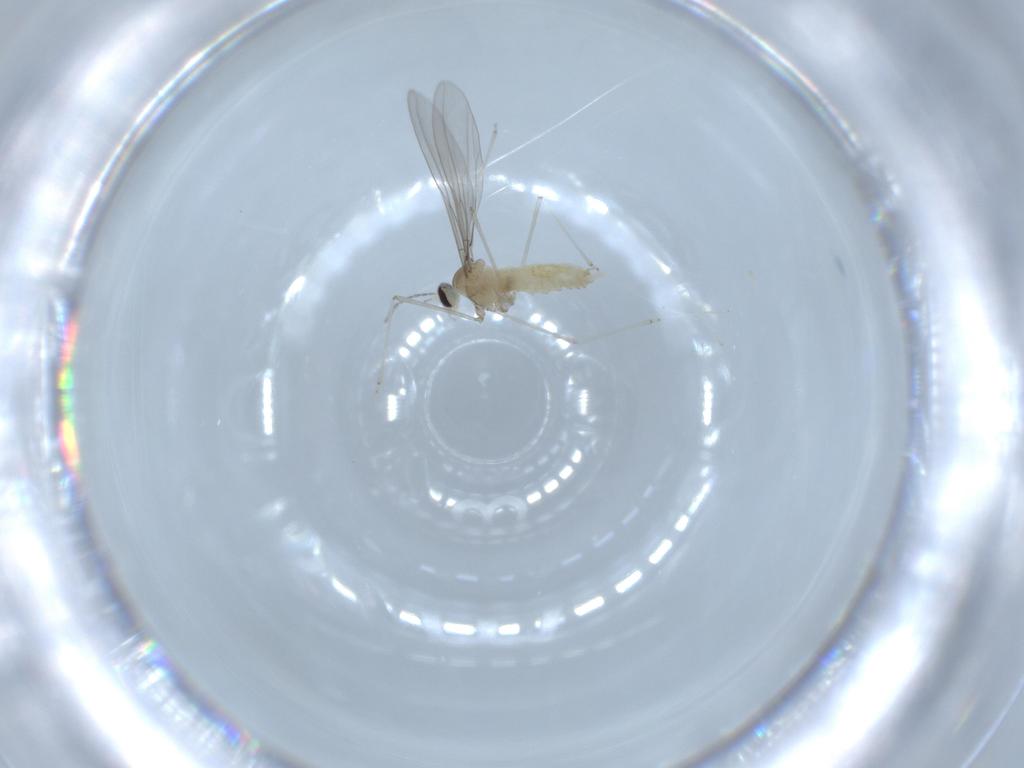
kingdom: Animalia
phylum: Arthropoda
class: Insecta
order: Diptera
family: Cecidomyiidae
